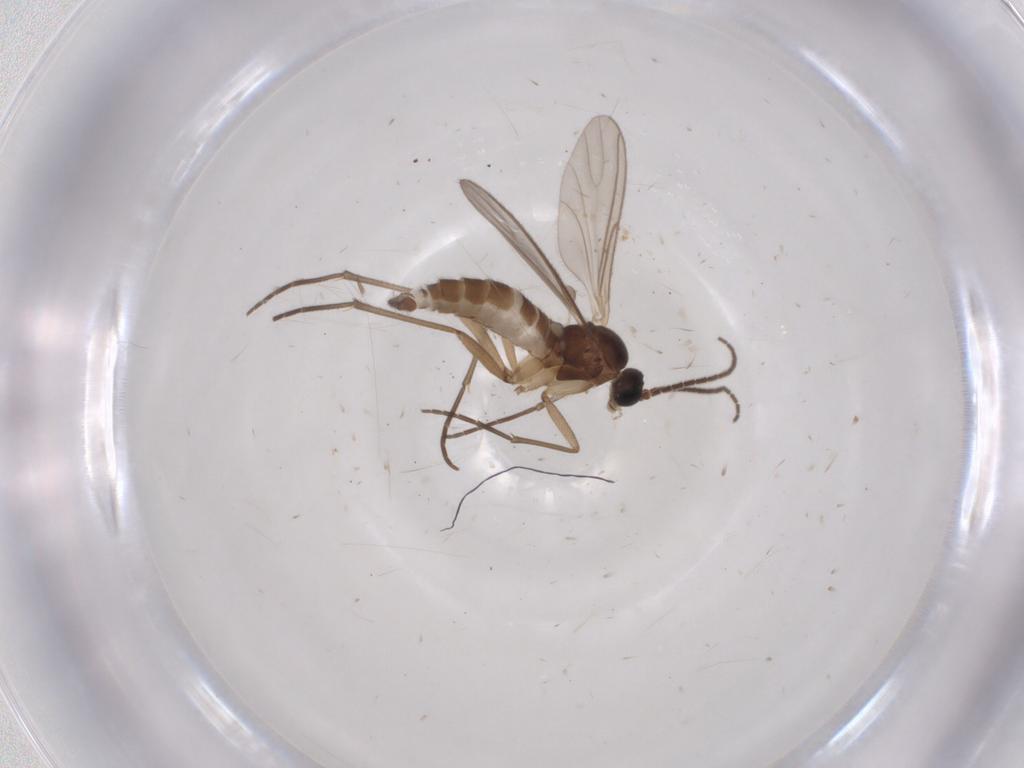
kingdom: Animalia
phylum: Arthropoda
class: Insecta
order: Diptera
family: Sciaridae
